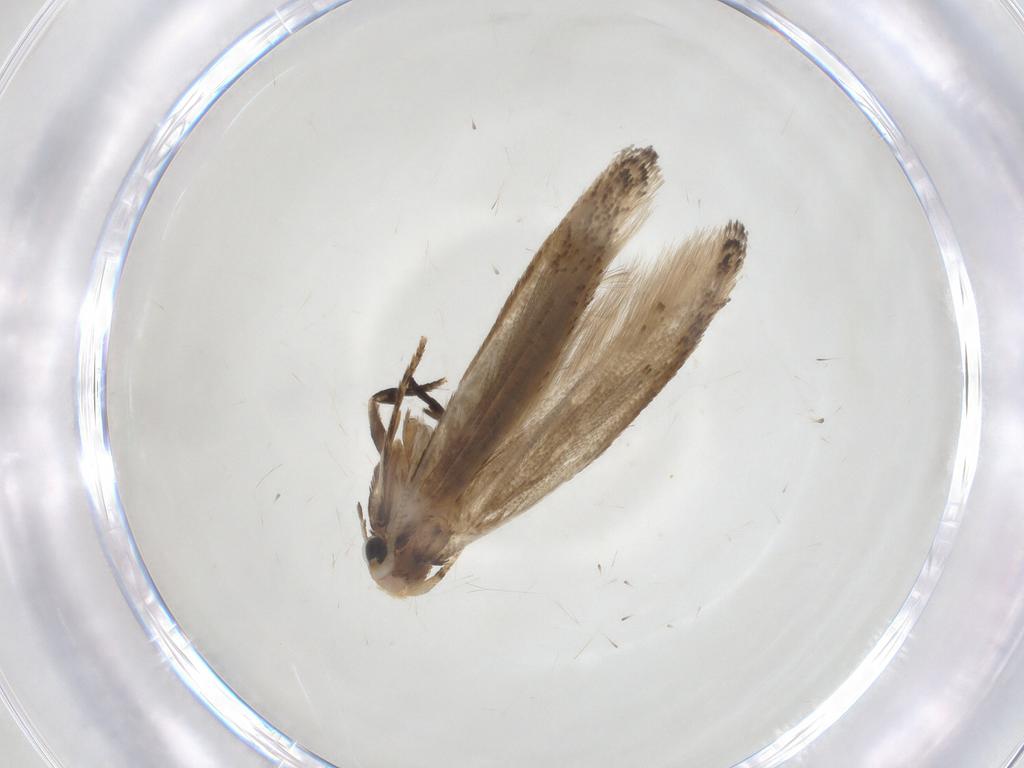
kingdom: Animalia
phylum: Arthropoda
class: Insecta
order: Lepidoptera
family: Tineidae
